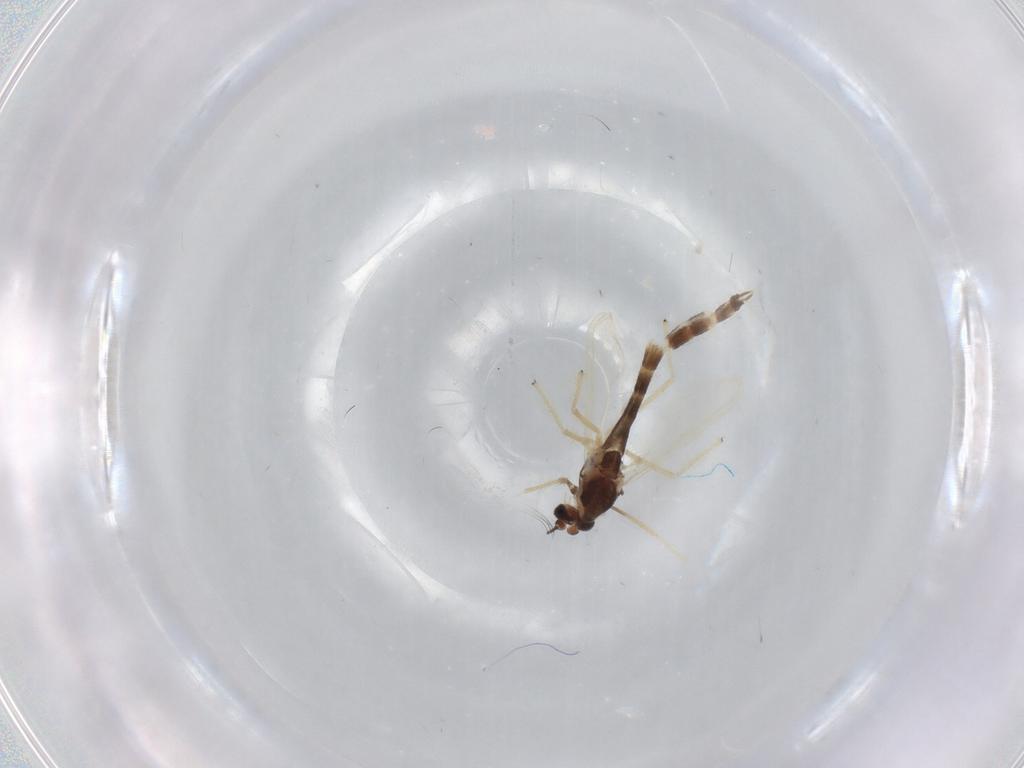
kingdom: Animalia
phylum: Arthropoda
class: Insecta
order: Diptera
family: Chironomidae
